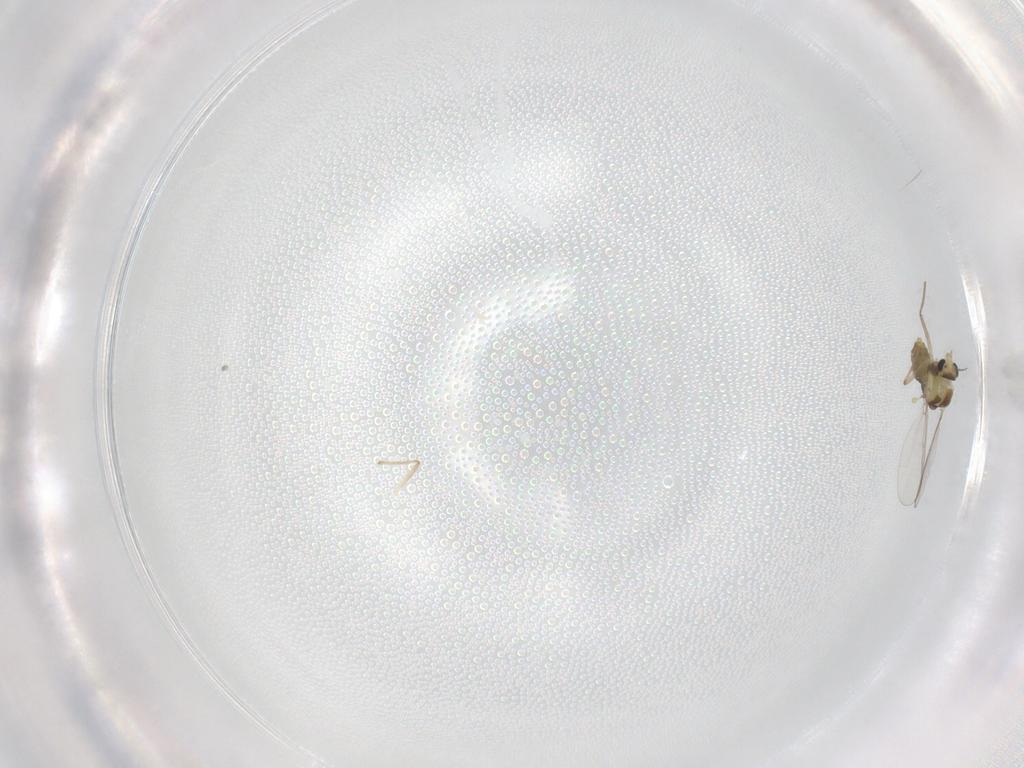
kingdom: Animalia
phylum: Arthropoda
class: Insecta
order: Diptera
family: Chironomidae
